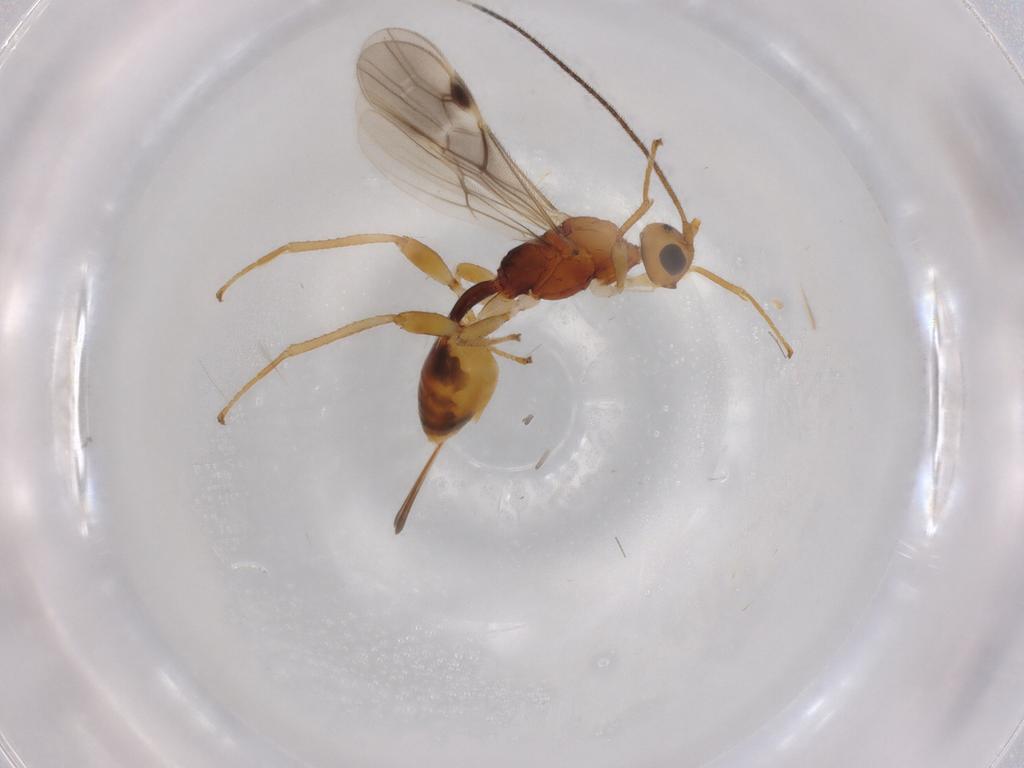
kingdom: Animalia
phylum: Arthropoda
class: Insecta
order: Hymenoptera
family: Braconidae
